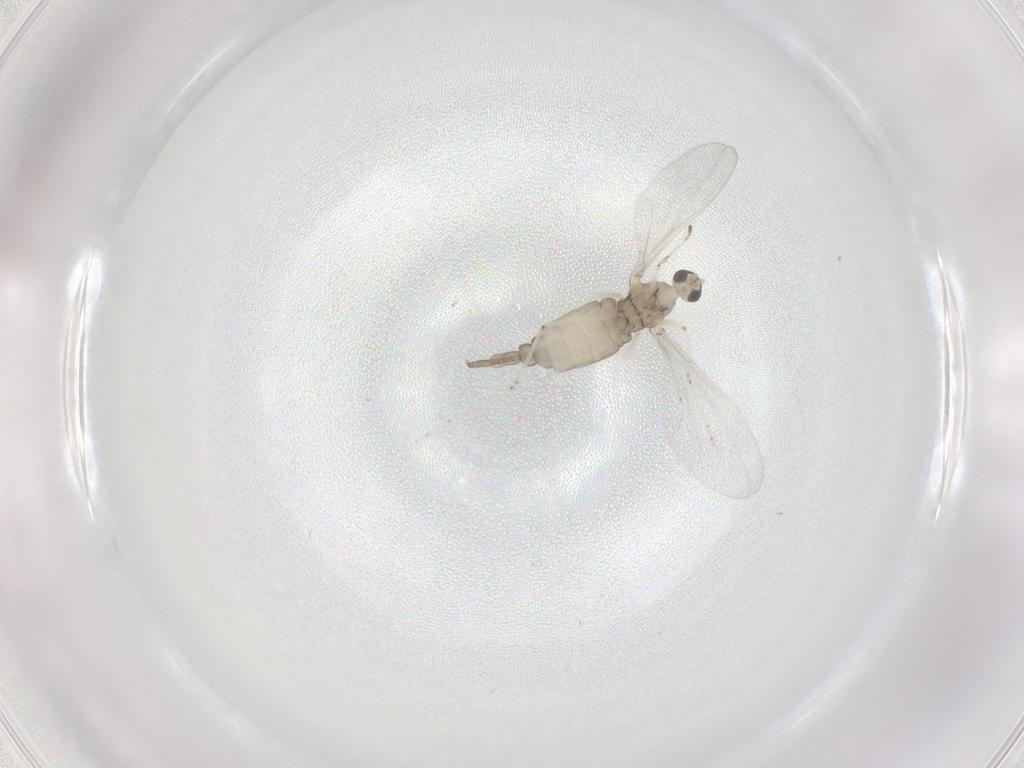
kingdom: Animalia
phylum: Arthropoda
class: Insecta
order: Diptera
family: Cecidomyiidae
